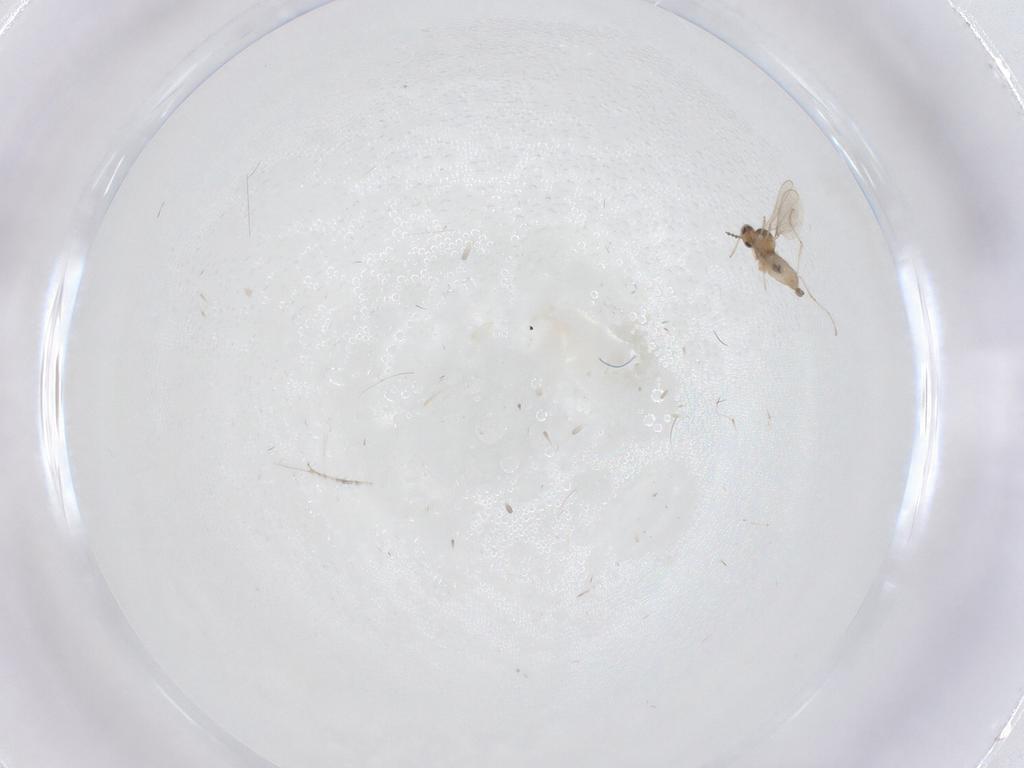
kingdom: Animalia
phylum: Arthropoda
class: Insecta
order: Diptera
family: Cecidomyiidae
